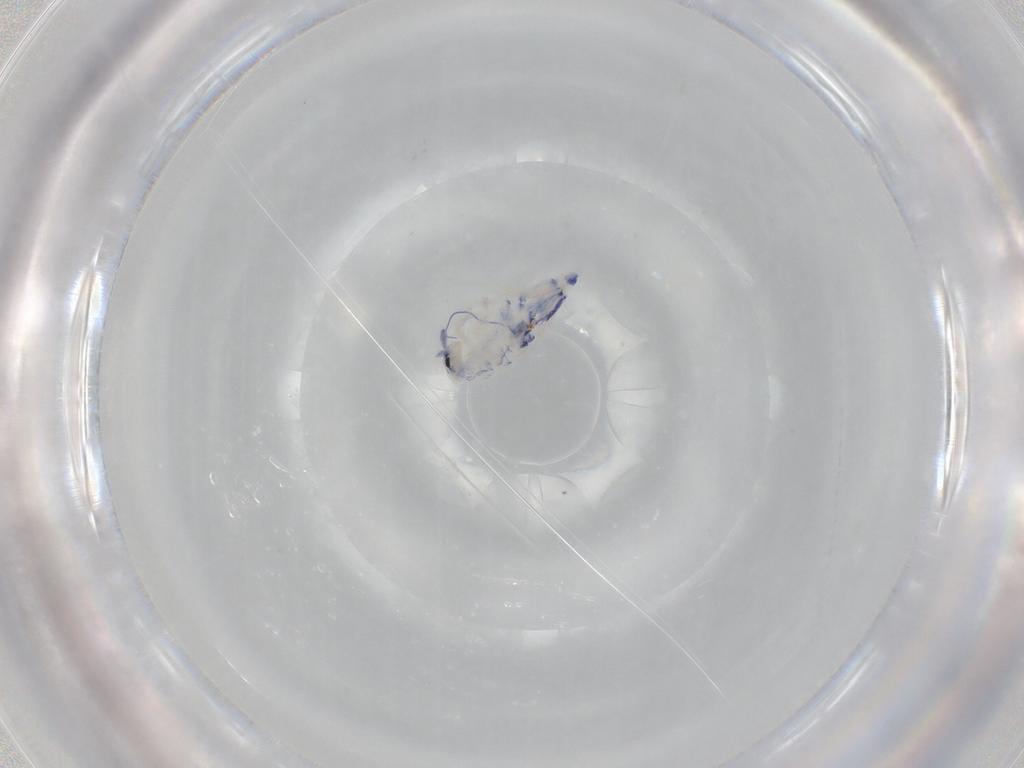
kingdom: Animalia
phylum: Arthropoda
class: Collembola
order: Entomobryomorpha
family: Entomobryidae
